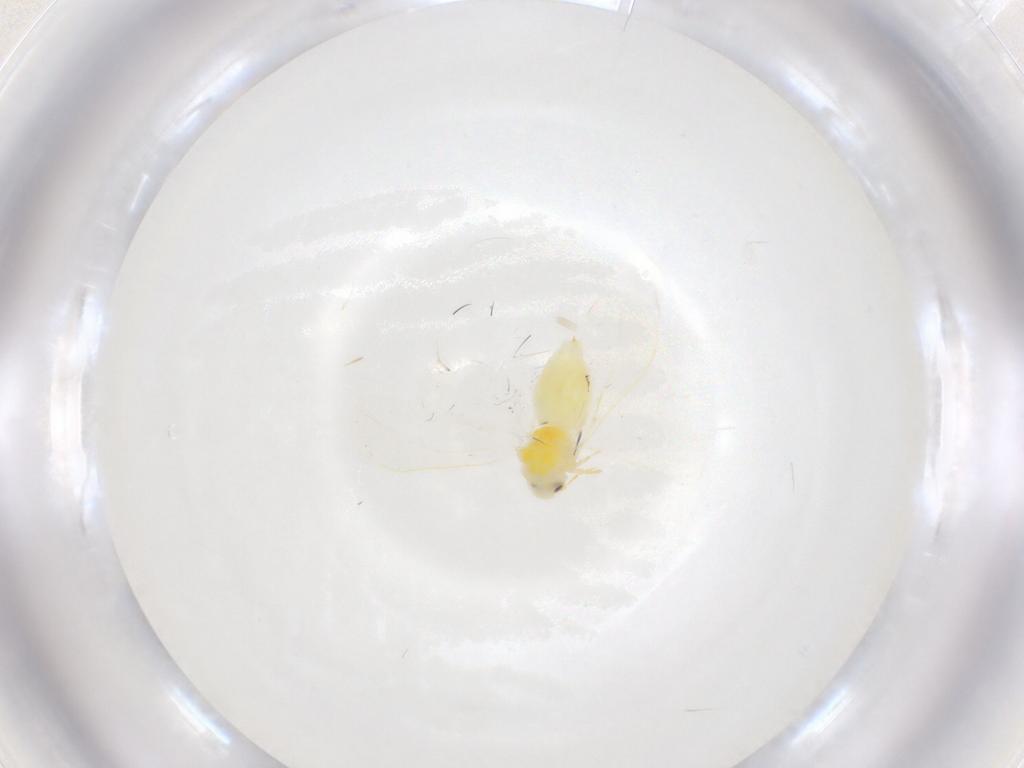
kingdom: Animalia
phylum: Arthropoda
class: Insecta
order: Hemiptera
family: Aleyrodidae
